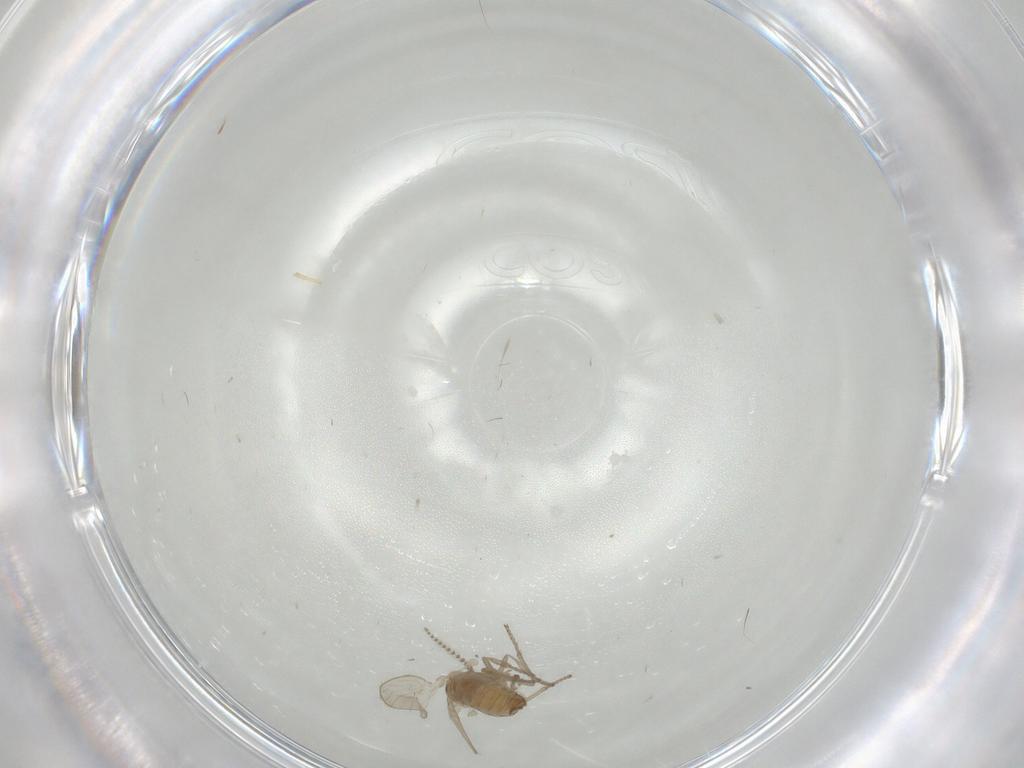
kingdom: Animalia
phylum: Arthropoda
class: Insecta
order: Diptera
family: Psychodidae
